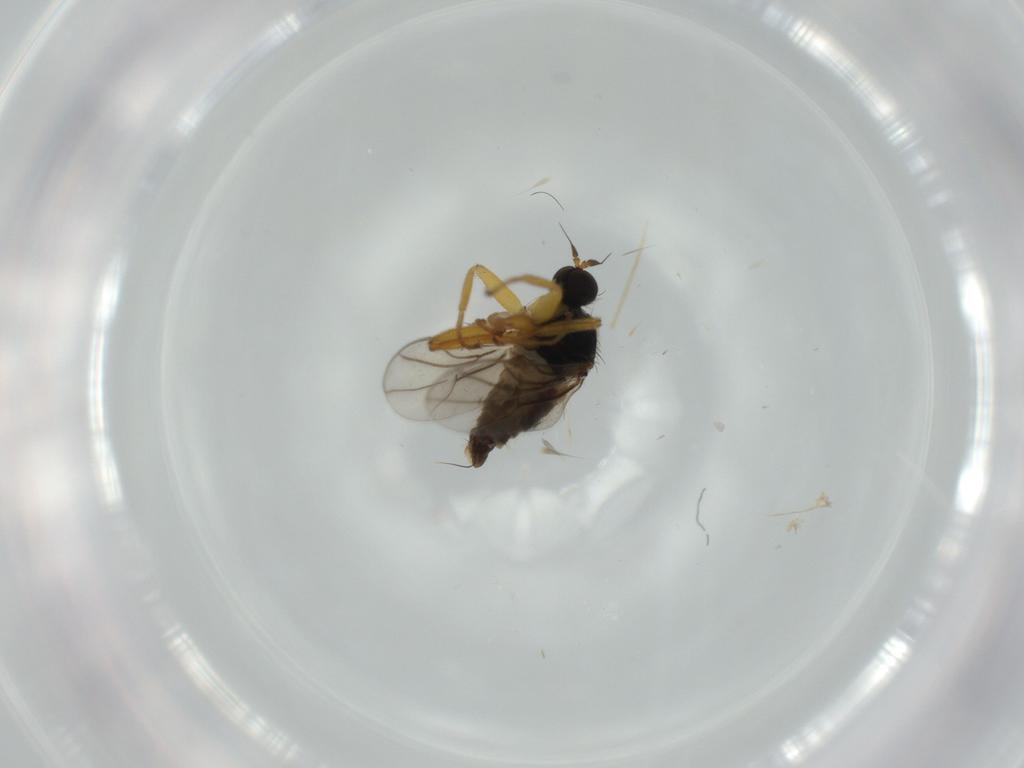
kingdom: Animalia
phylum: Arthropoda
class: Insecta
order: Diptera
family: Hybotidae
